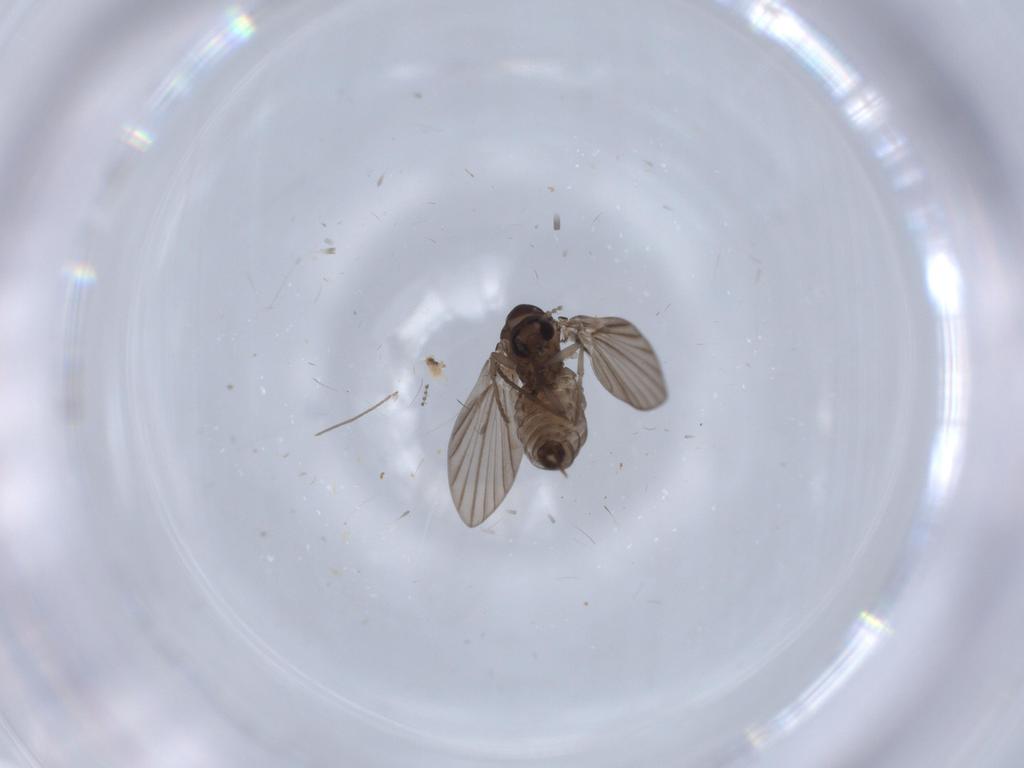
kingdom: Animalia
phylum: Arthropoda
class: Insecta
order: Diptera
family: Psychodidae
